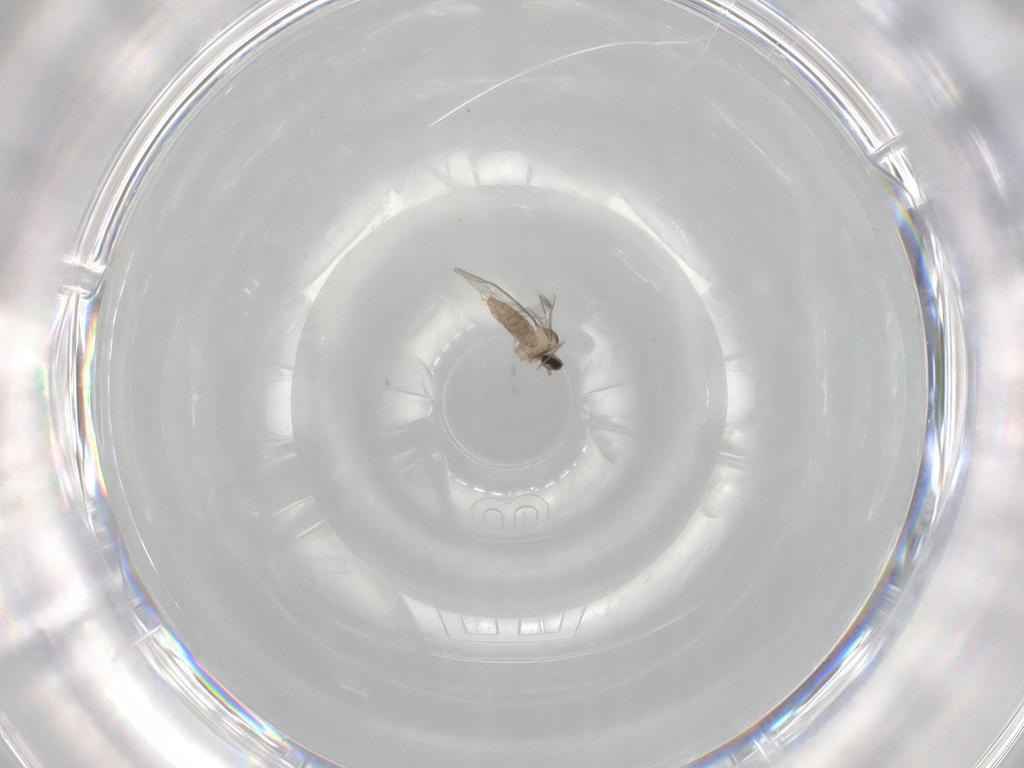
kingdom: Animalia
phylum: Arthropoda
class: Insecta
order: Diptera
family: Cecidomyiidae
